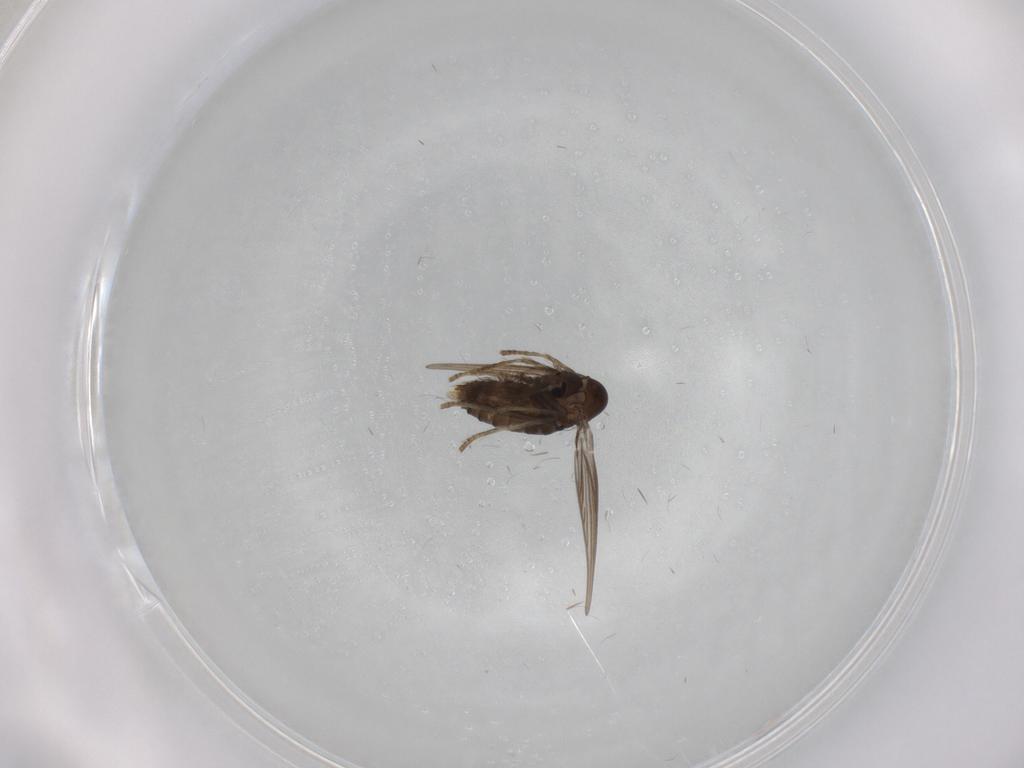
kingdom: Animalia
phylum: Arthropoda
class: Insecta
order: Diptera
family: Psychodidae
